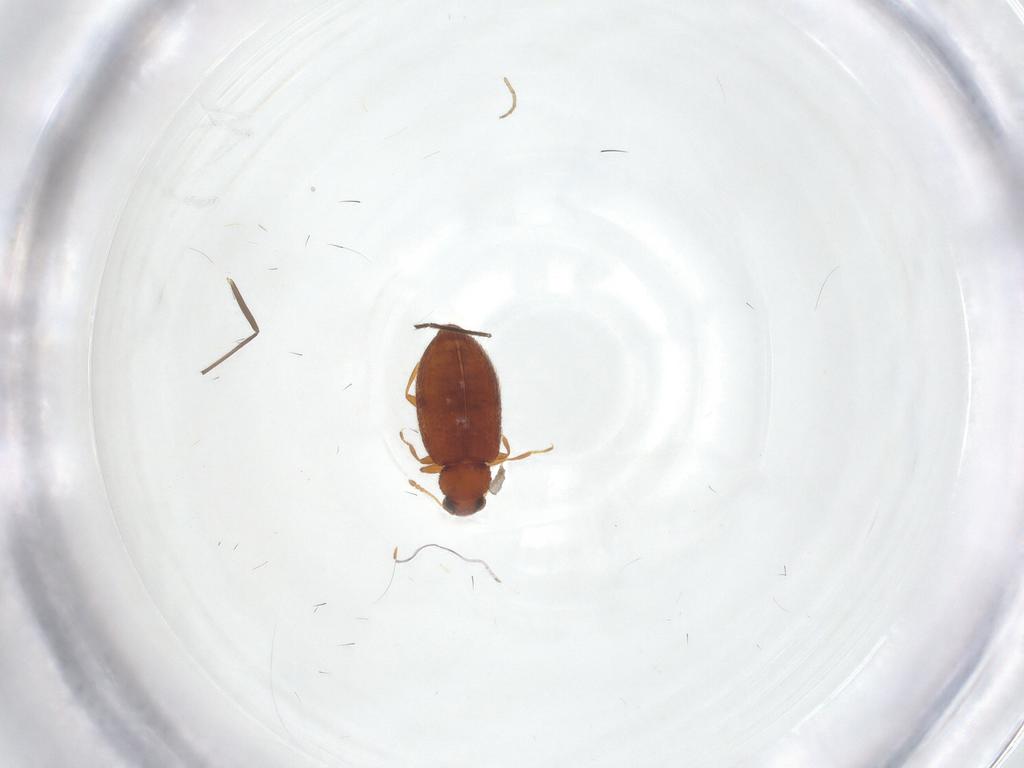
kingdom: Animalia
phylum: Arthropoda
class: Insecta
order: Coleoptera
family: Latridiidae
